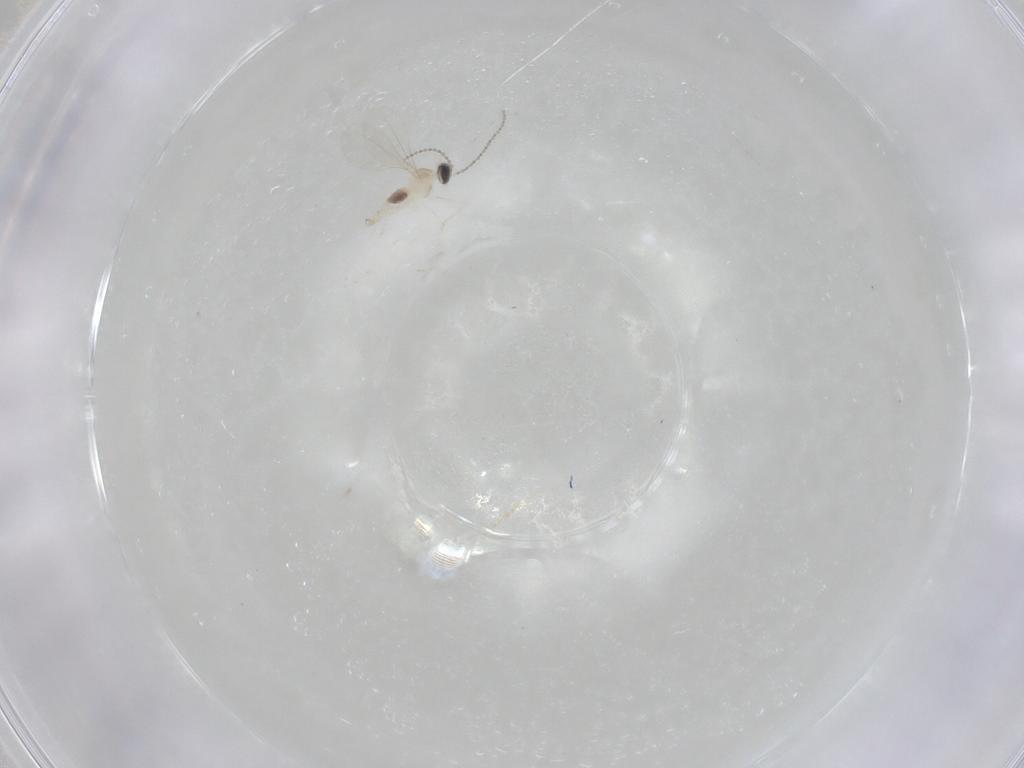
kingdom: Animalia
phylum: Arthropoda
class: Insecta
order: Diptera
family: Cecidomyiidae
